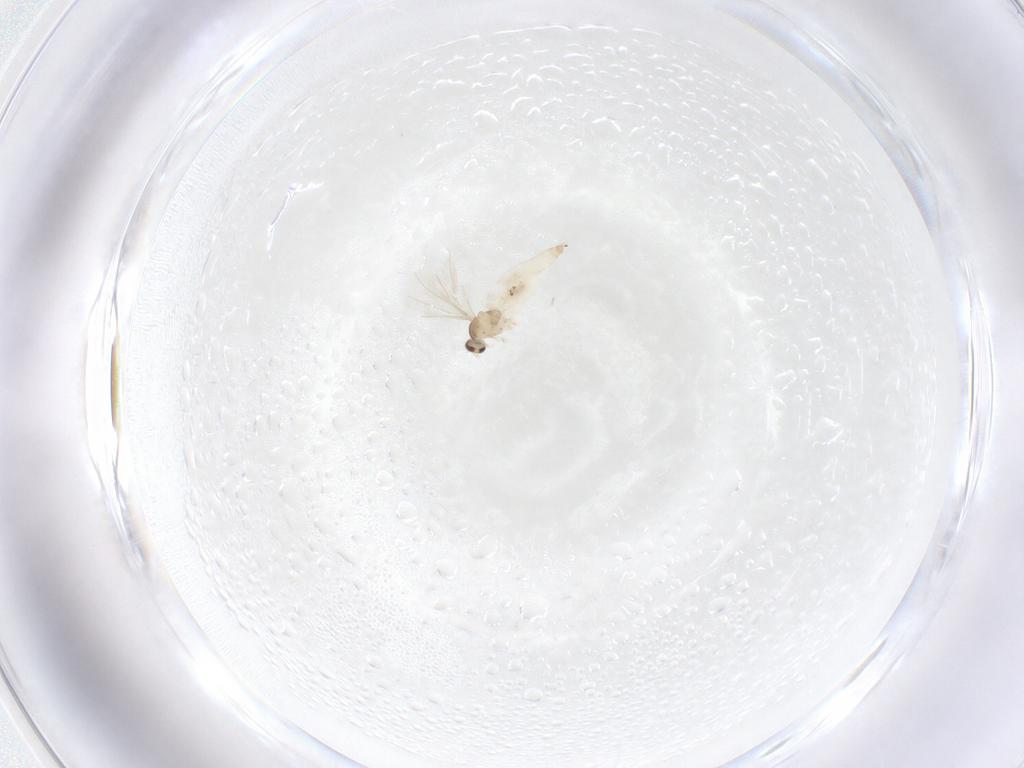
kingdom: Animalia
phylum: Arthropoda
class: Insecta
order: Diptera
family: Cecidomyiidae
